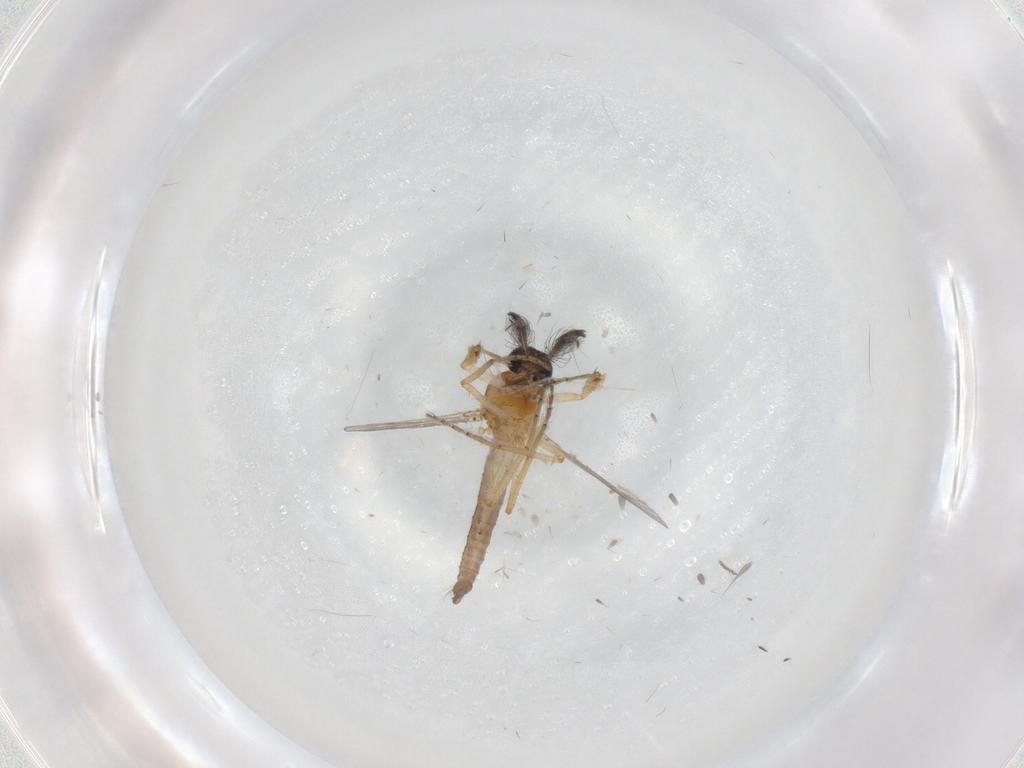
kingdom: Animalia
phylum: Arthropoda
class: Insecta
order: Diptera
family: Ceratopogonidae
